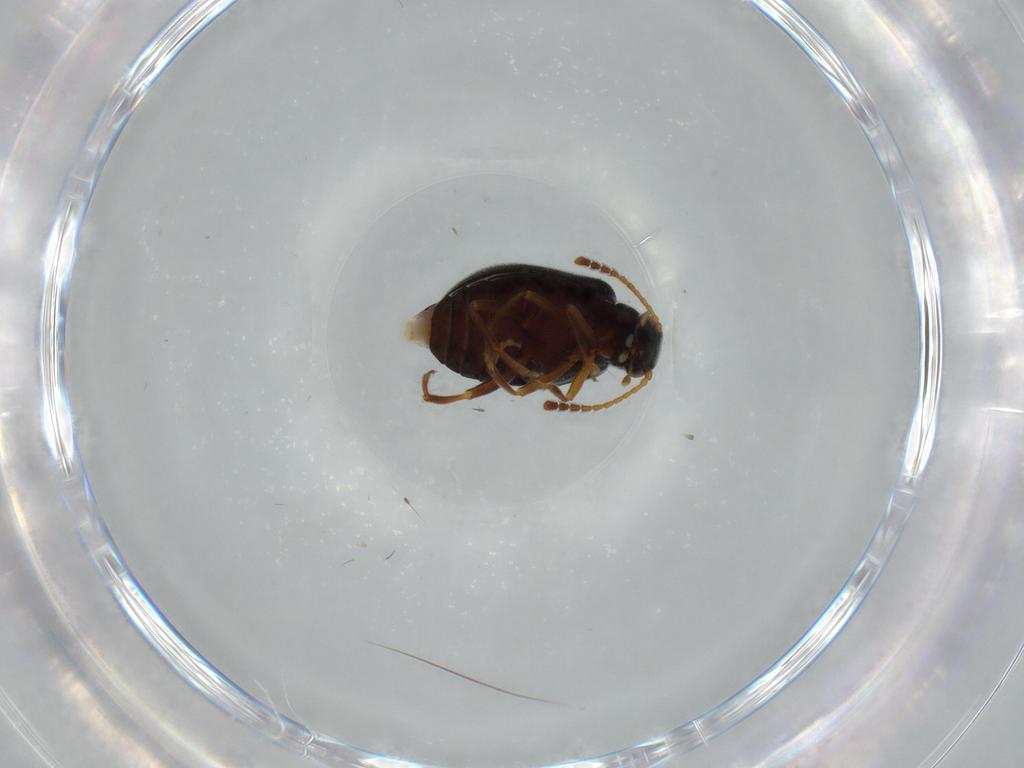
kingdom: Animalia
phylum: Arthropoda
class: Insecta
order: Coleoptera
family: Aderidae
